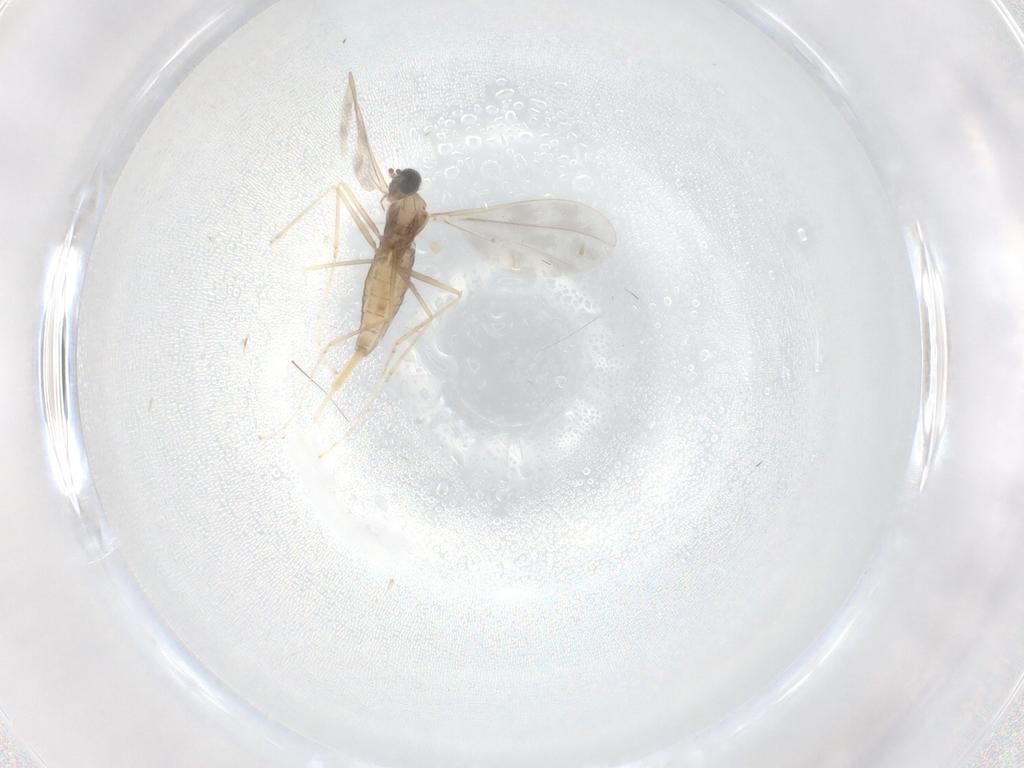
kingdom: Animalia
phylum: Arthropoda
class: Insecta
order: Diptera
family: Cecidomyiidae
